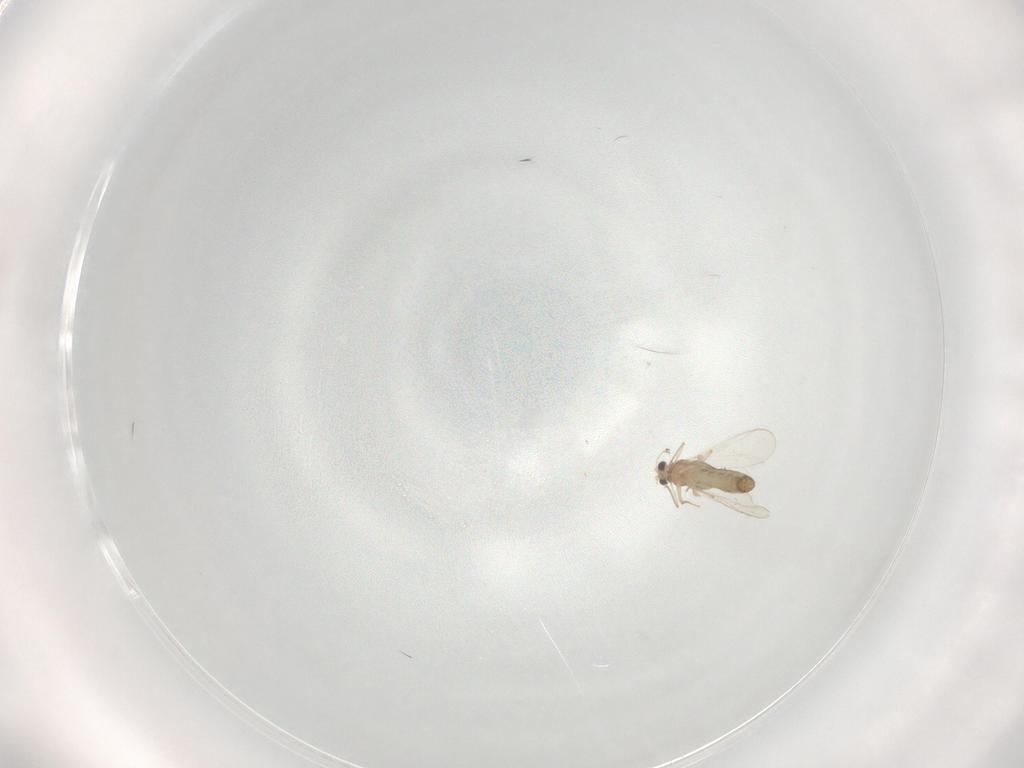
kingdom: Animalia
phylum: Arthropoda
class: Insecta
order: Diptera
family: Chironomidae
